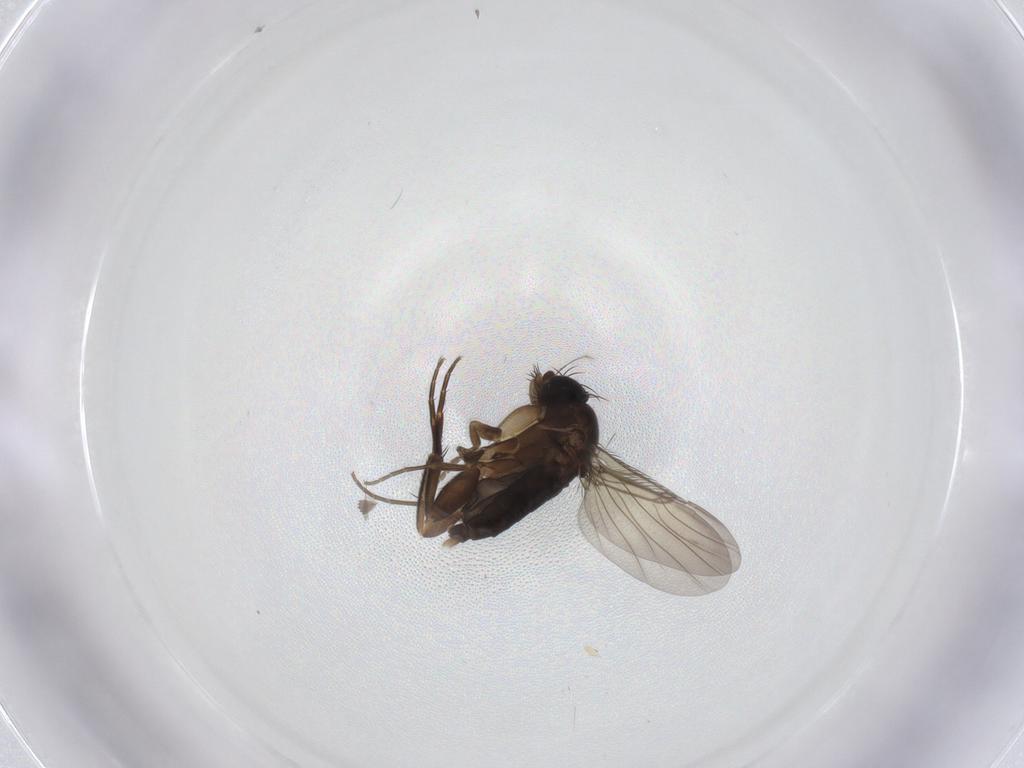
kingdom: Animalia
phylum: Arthropoda
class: Insecta
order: Diptera
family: Phoridae
